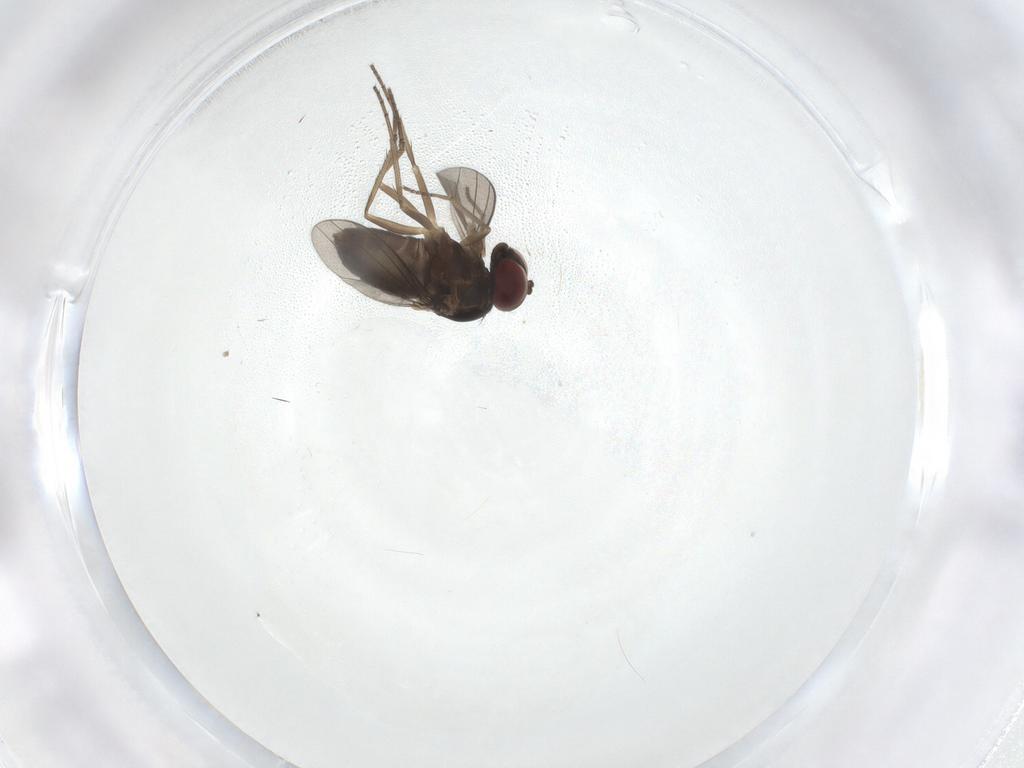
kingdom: Animalia
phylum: Arthropoda
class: Insecta
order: Diptera
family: Dolichopodidae
